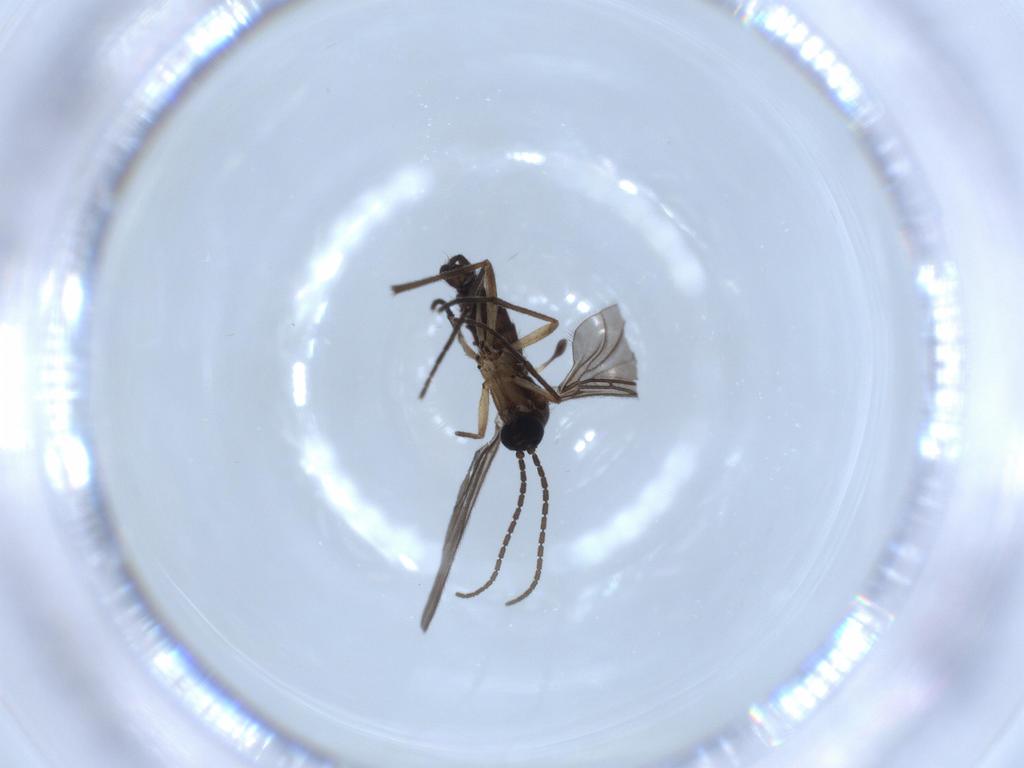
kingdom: Animalia
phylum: Arthropoda
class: Insecta
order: Diptera
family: Sciaridae
